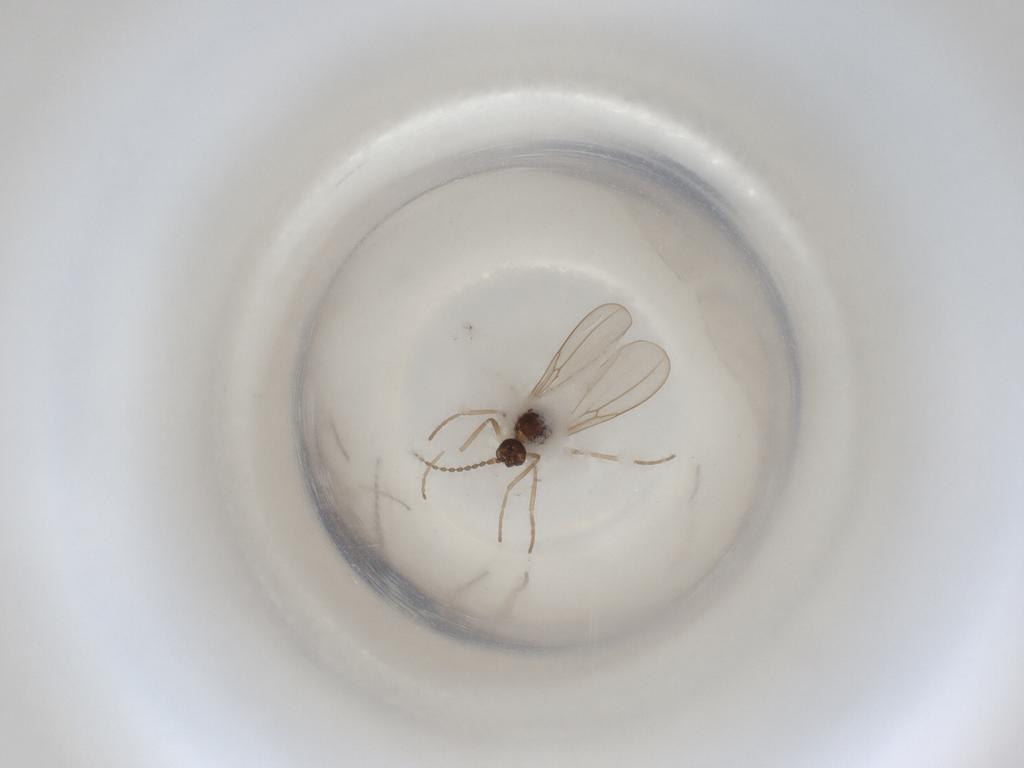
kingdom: Animalia
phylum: Arthropoda
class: Insecta
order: Diptera
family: Cecidomyiidae
